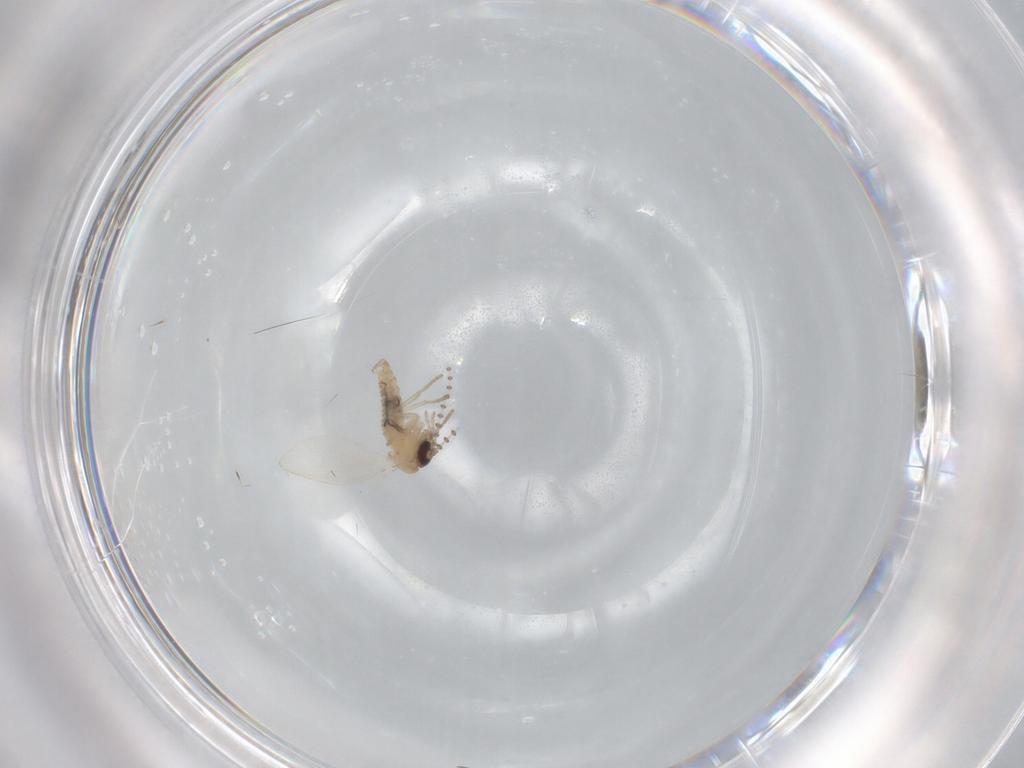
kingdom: Animalia
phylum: Arthropoda
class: Insecta
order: Diptera
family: Psychodidae
